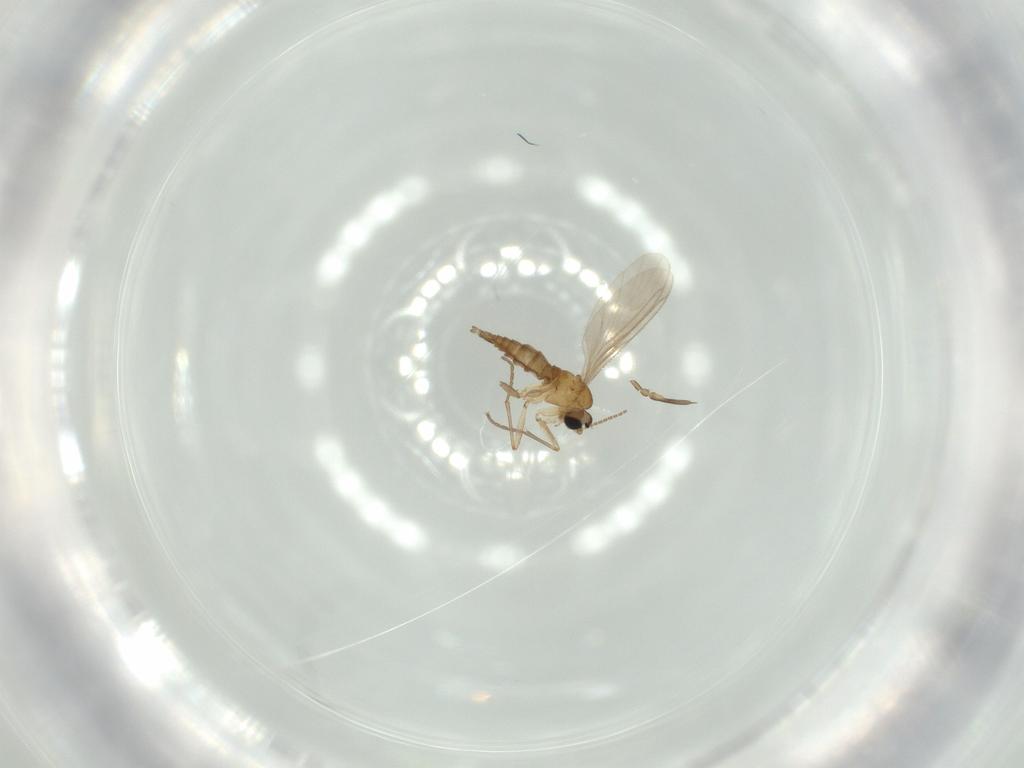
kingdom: Animalia
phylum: Arthropoda
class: Insecta
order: Diptera
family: Sciaridae
